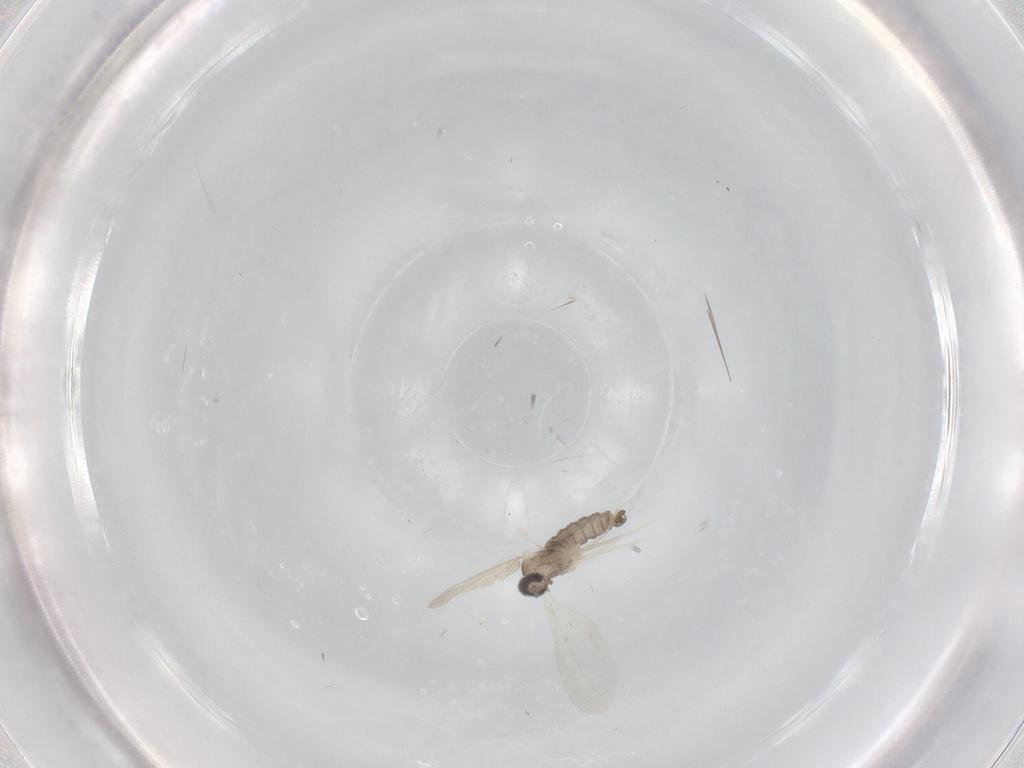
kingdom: Animalia
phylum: Arthropoda
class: Insecta
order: Diptera
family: Cecidomyiidae
